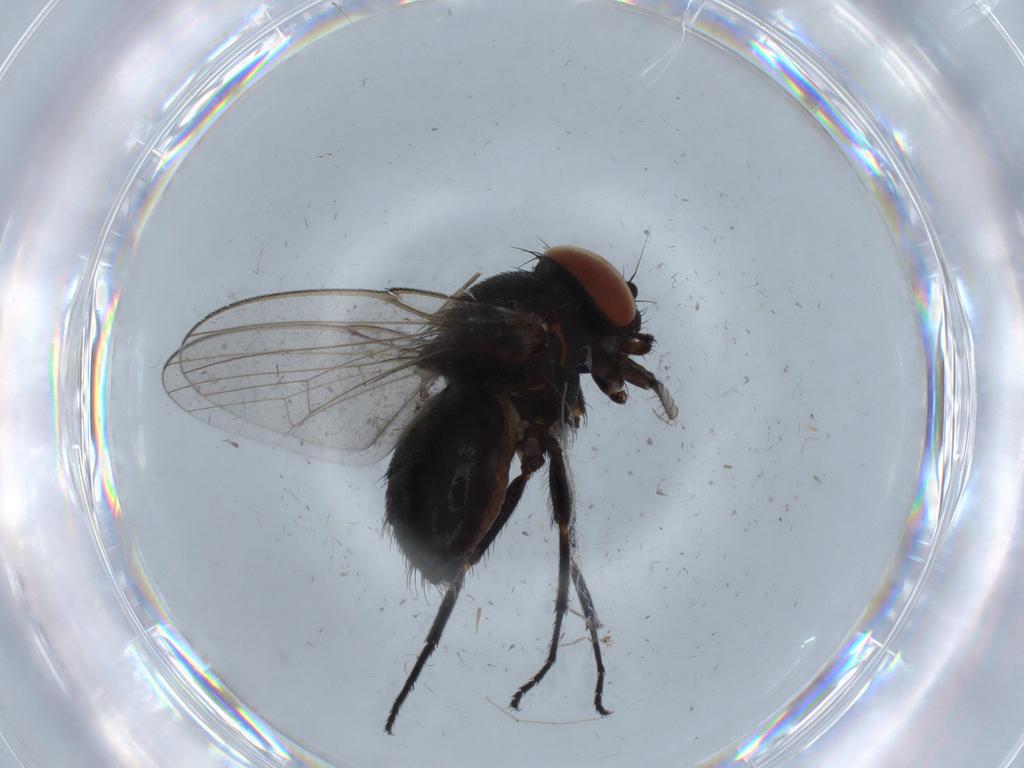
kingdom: Animalia
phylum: Arthropoda
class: Insecta
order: Diptera
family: Milichiidae
